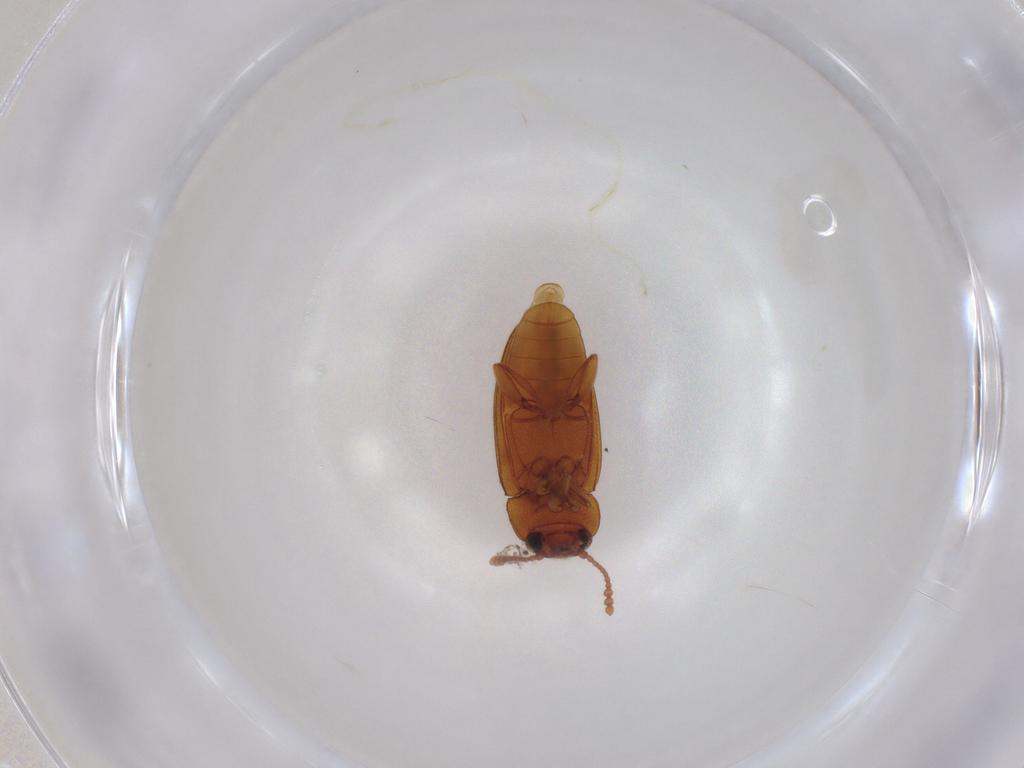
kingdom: Animalia
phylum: Arthropoda
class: Insecta
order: Coleoptera
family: Erotylidae
